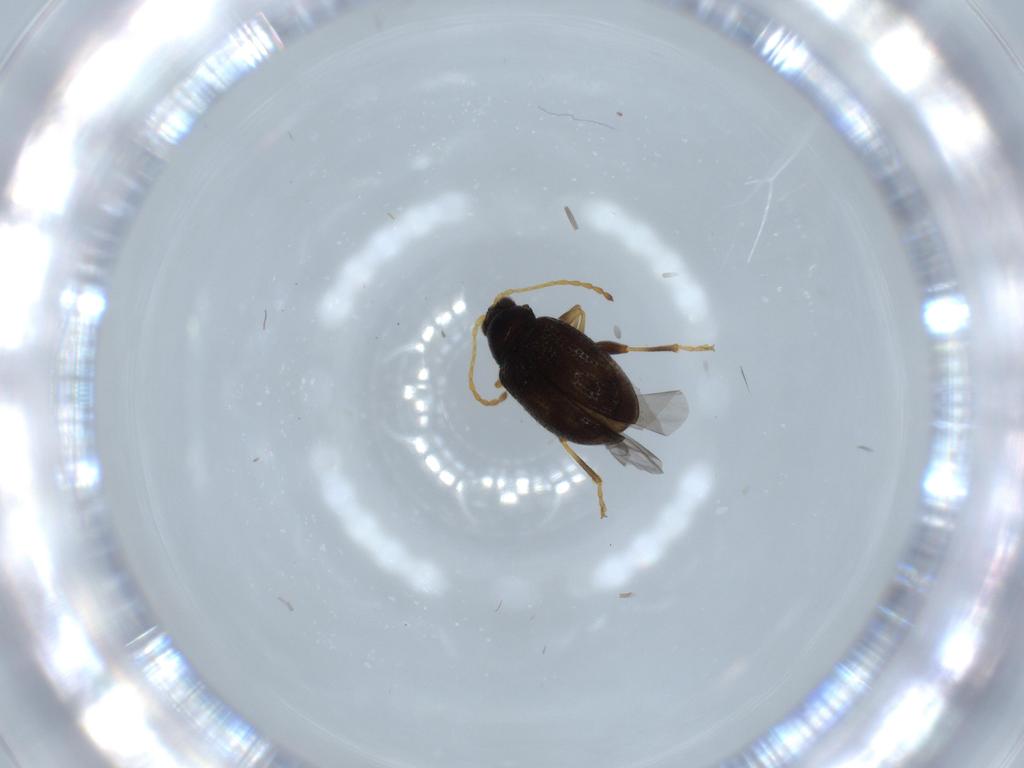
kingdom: Animalia
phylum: Arthropoda
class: Insecta
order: Coleoptera
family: Chrysomelidae
